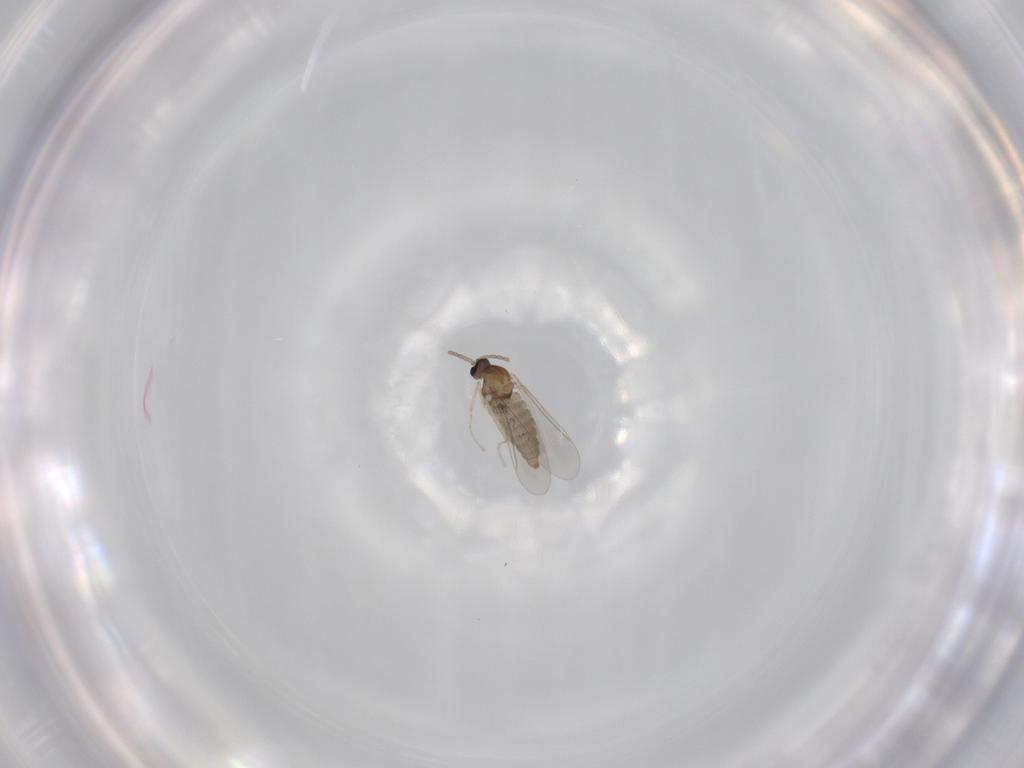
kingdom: Animalia
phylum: Arthropoda
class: Insecta
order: Diptera
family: Cecidomyiidae
